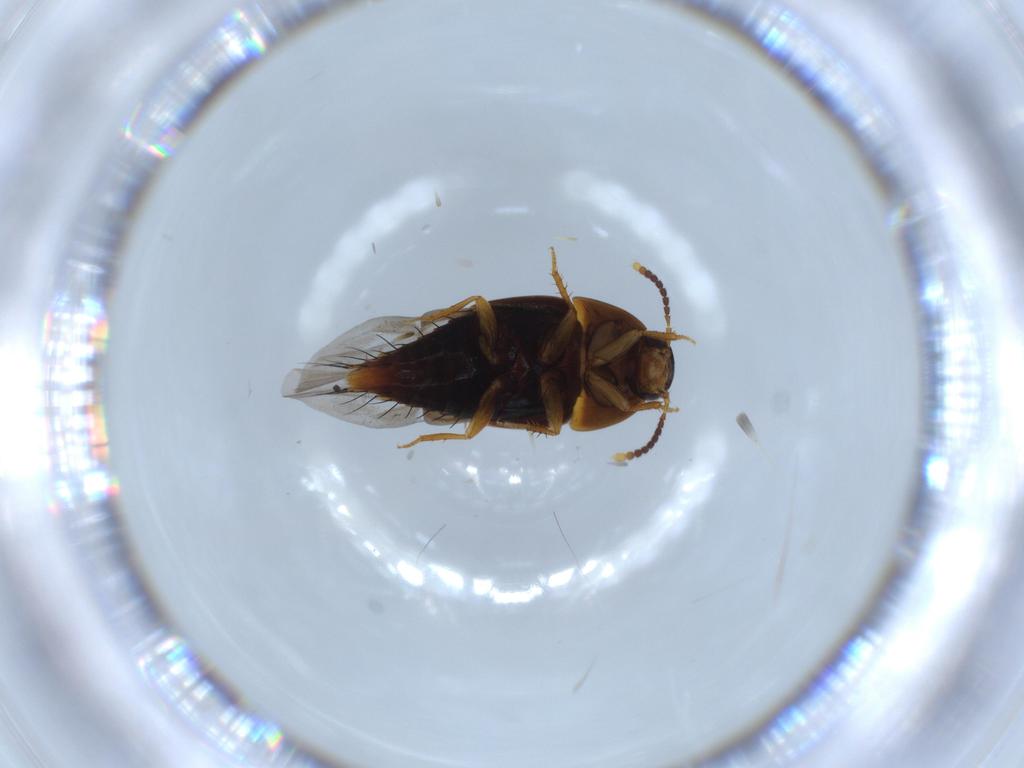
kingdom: Animalia
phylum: Arthropoda
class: Insecta
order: Coleoptera
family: Staphylinidae
